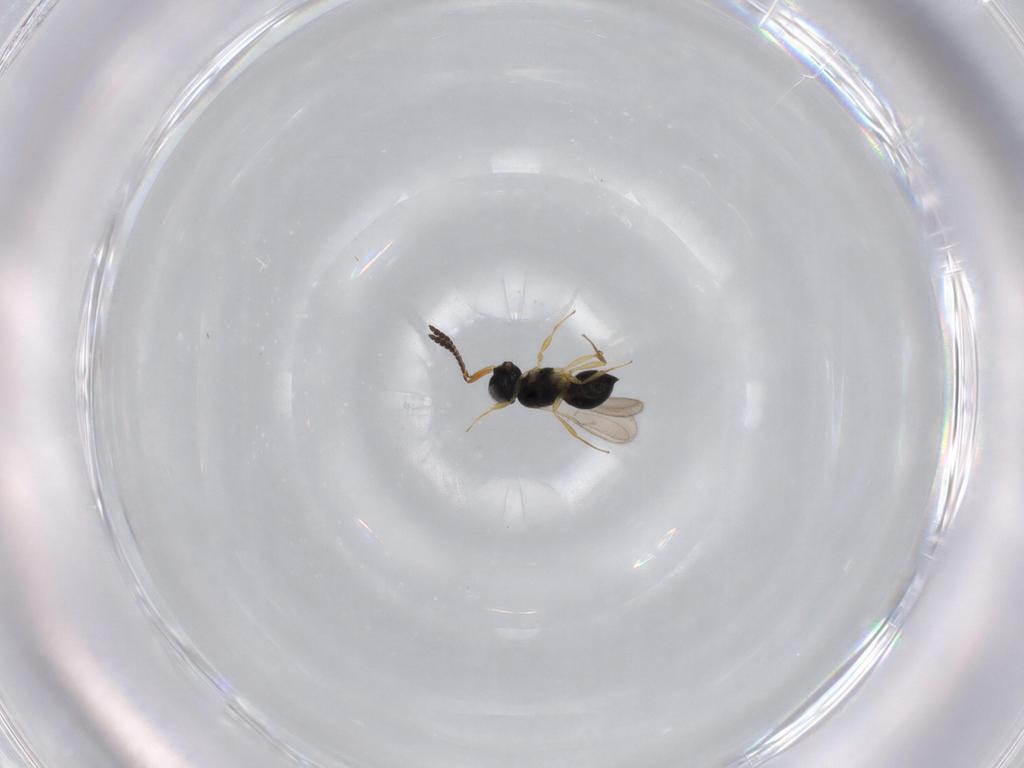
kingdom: Animalia
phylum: Arthropoda
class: Insecta
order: Hymenoptera
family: Scelionidae
